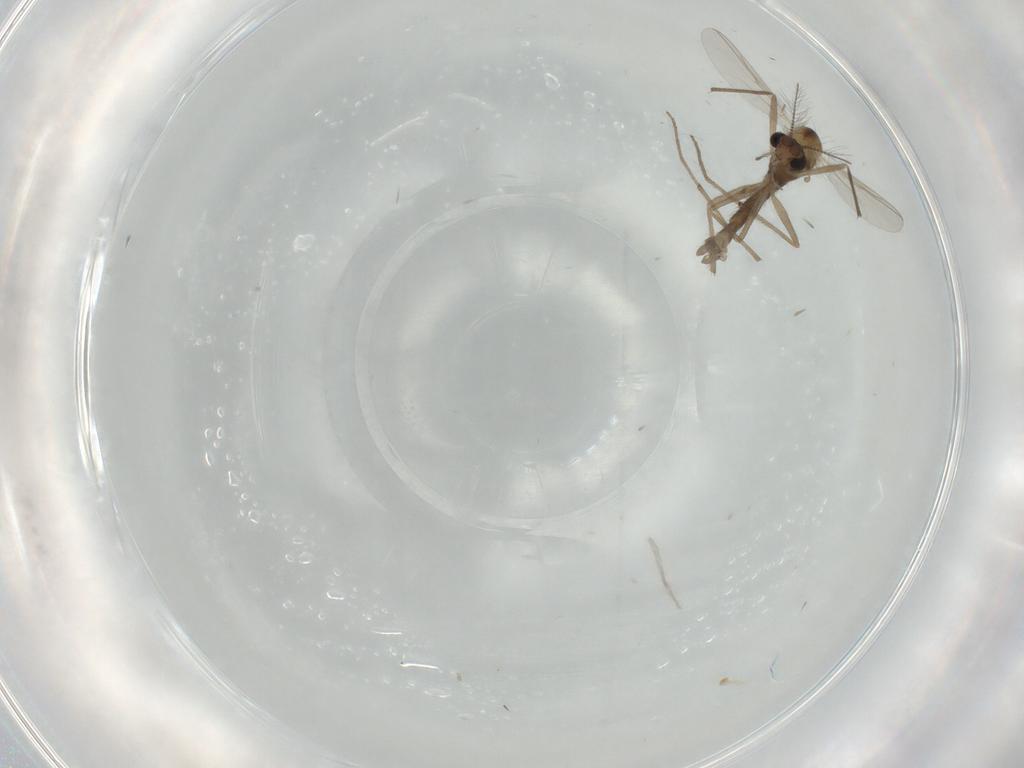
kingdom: Animalia
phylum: Arthropoda
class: Insecta
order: Diptera
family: Chironomidae
